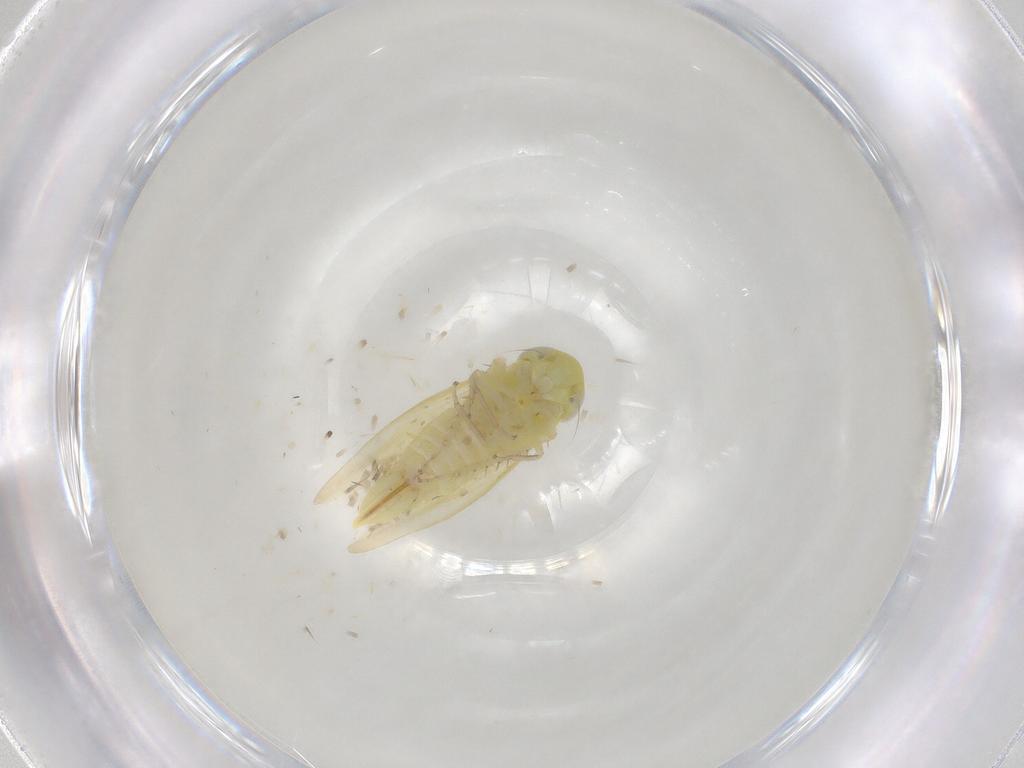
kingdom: Animalia
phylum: Arthropoda
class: Insecta
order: Hemiptera
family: Cicadellidae
